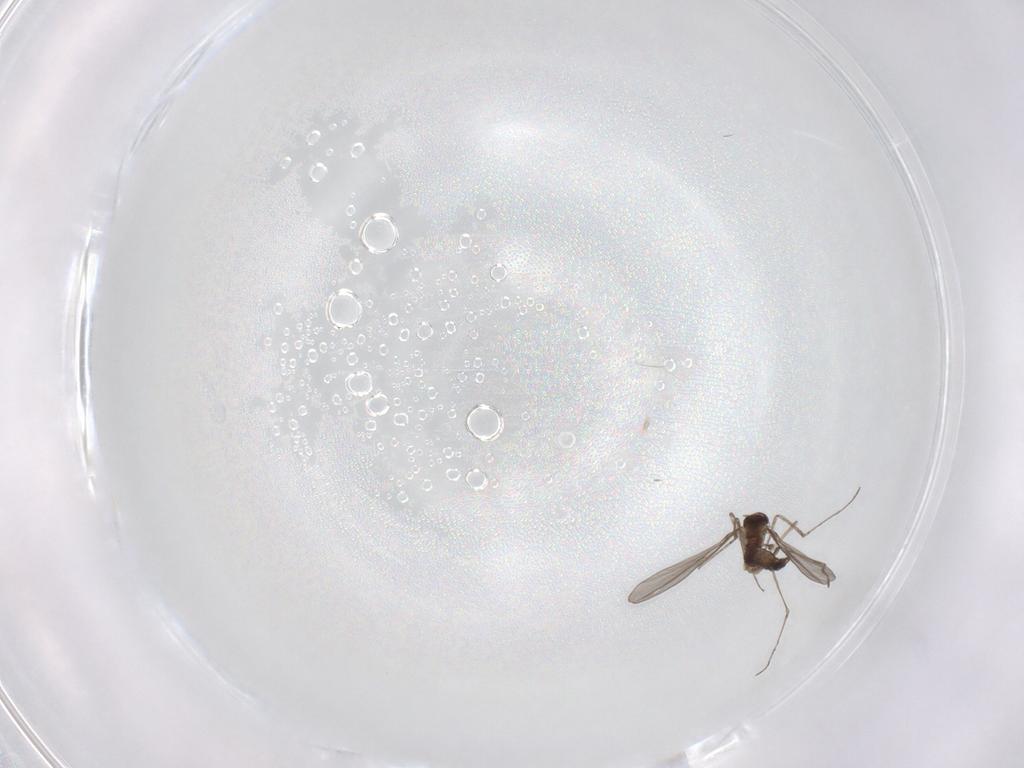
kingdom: Animalia
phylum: Arthropoda
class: Insecta
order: Diptera
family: Cecidomyiidae
